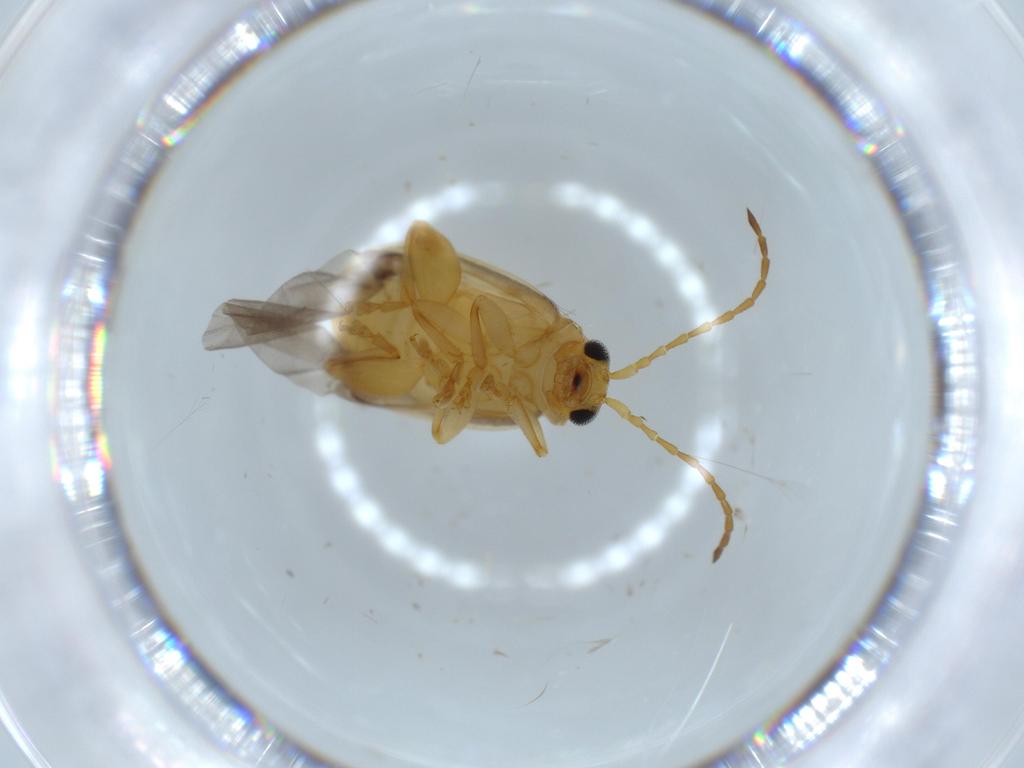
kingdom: Animalia
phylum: Arthropoda
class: Insecta
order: Coleoptera
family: Chrysomelidae
